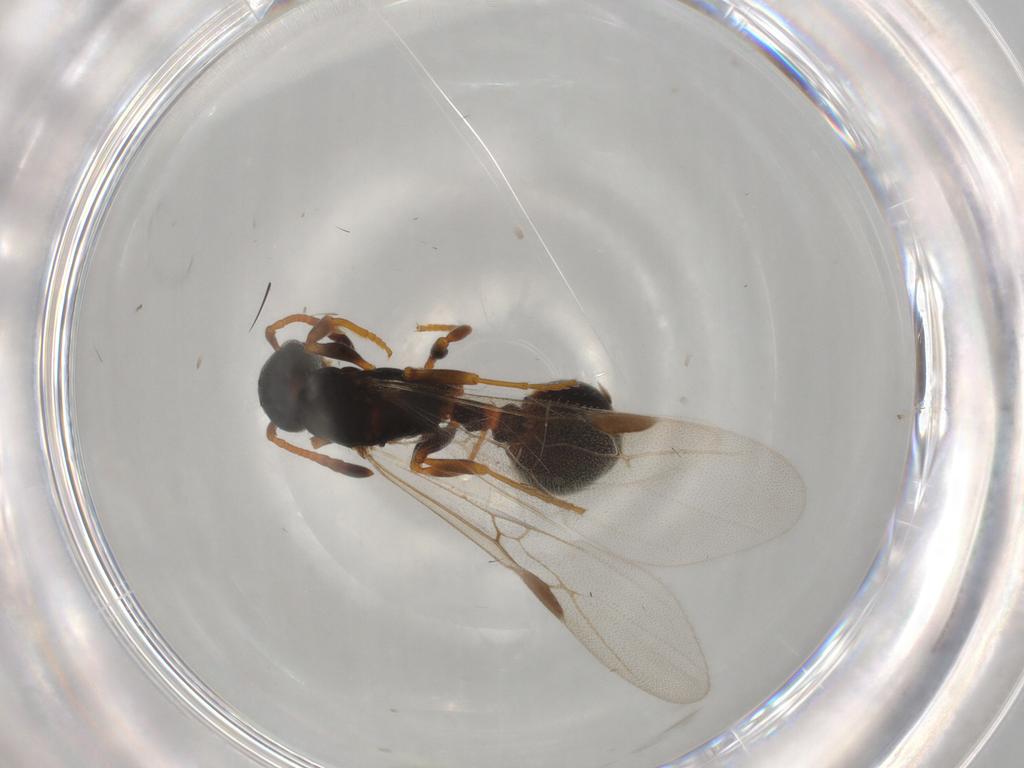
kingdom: Animalia
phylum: Arthropoda
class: Insecta
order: Hymenoptera
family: Formicidae
